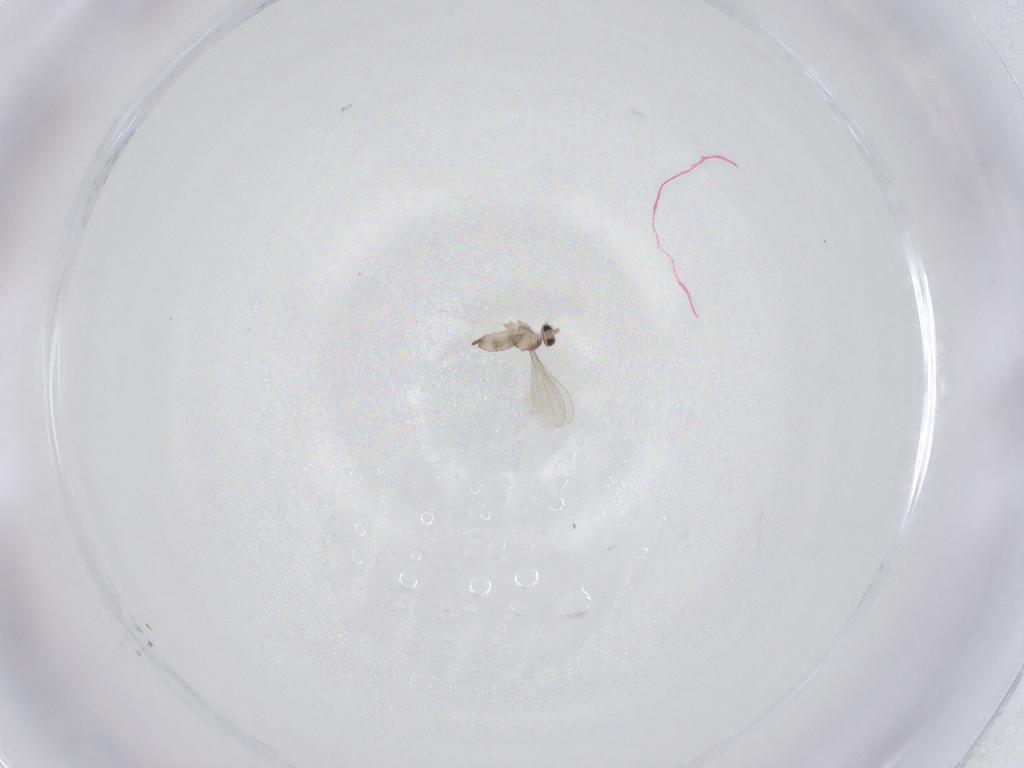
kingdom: Animalia
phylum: Arthropoda
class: Insecta
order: Diptera
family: Cecidomyiidae
